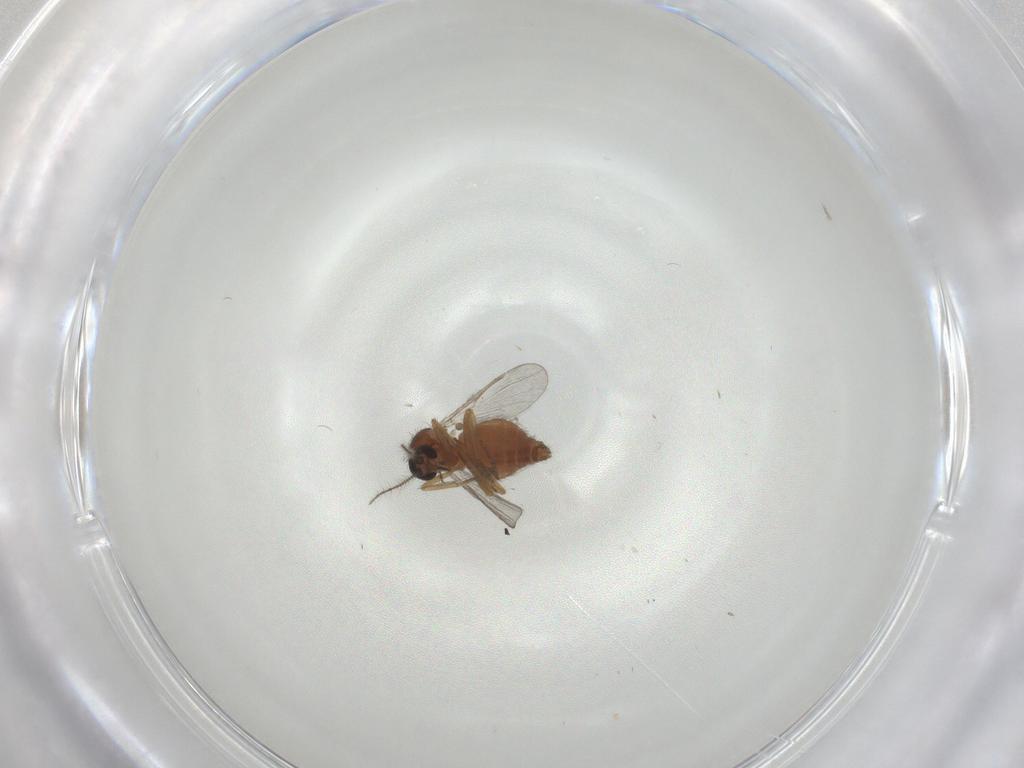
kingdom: Animalia
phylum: Arthropoda
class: Insecta
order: Diptera
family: Ceratopogonidae
